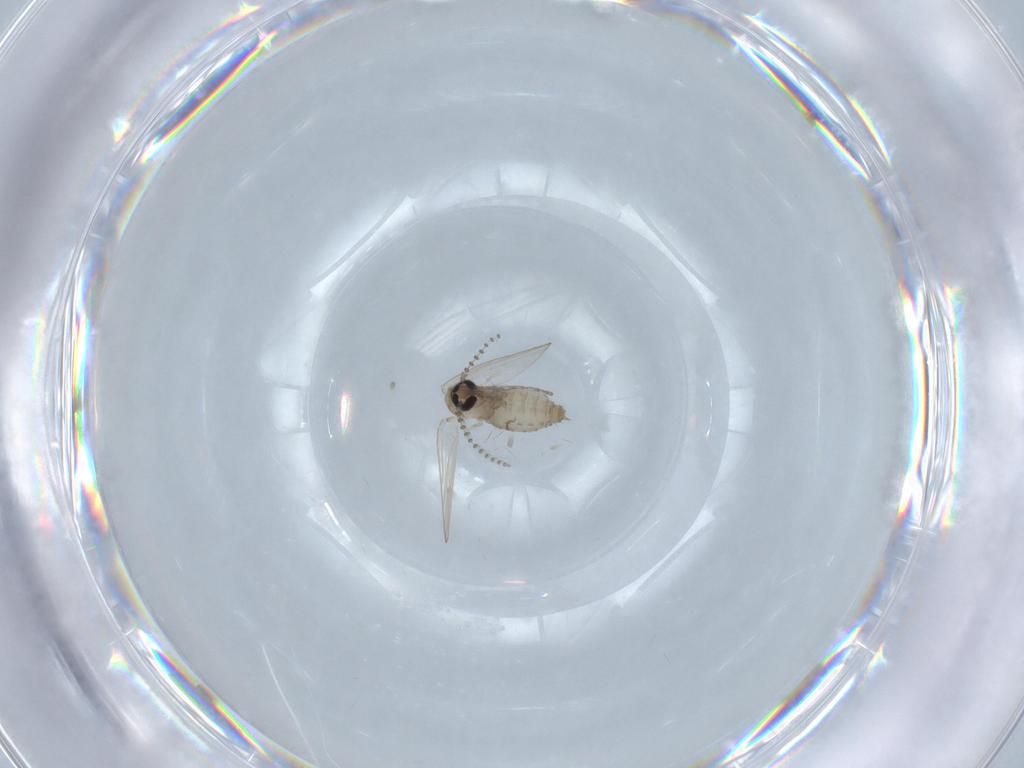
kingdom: Animalia
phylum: Arthropoda
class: Insecta
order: Diptera
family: Psychodidae
